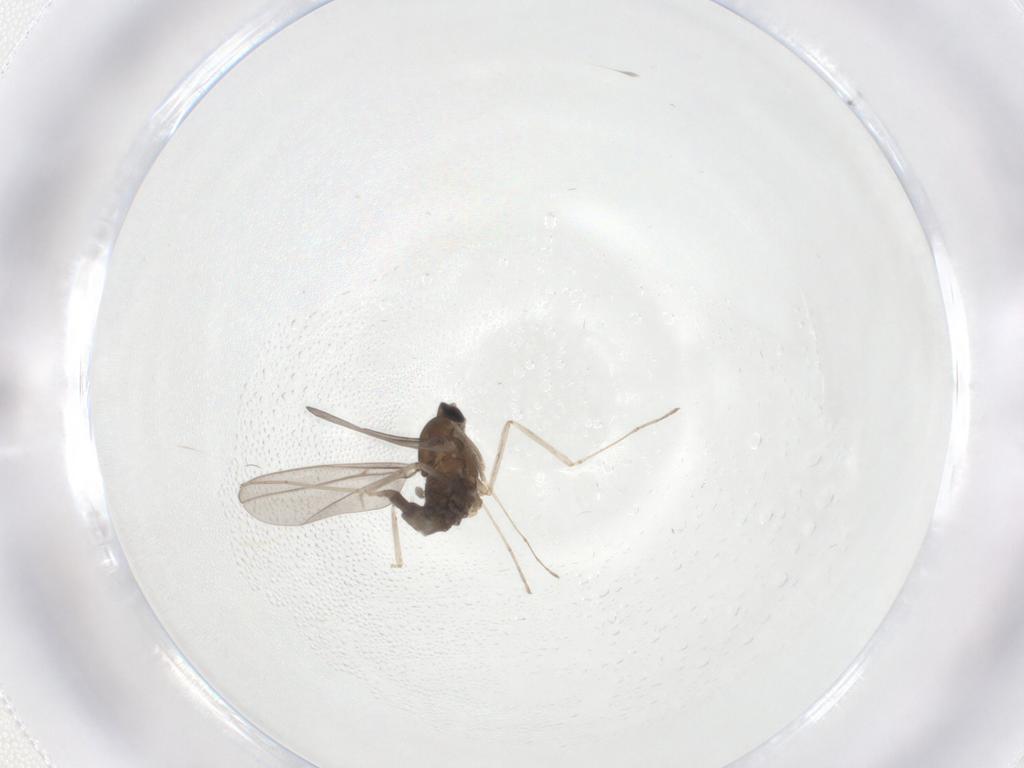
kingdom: Animalia
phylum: Arthropoda
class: Insecta
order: Diptera
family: Cecidomyiidae
